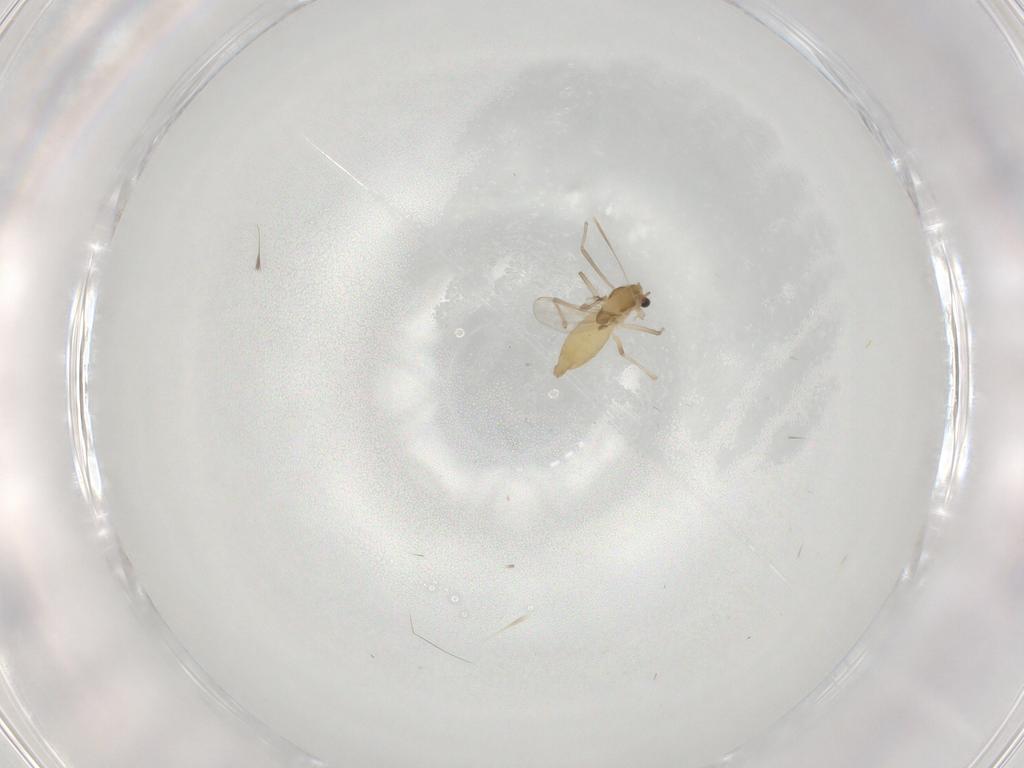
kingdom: Animalia
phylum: Arthropoda
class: Insecta
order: Diptera
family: Chironomidae
